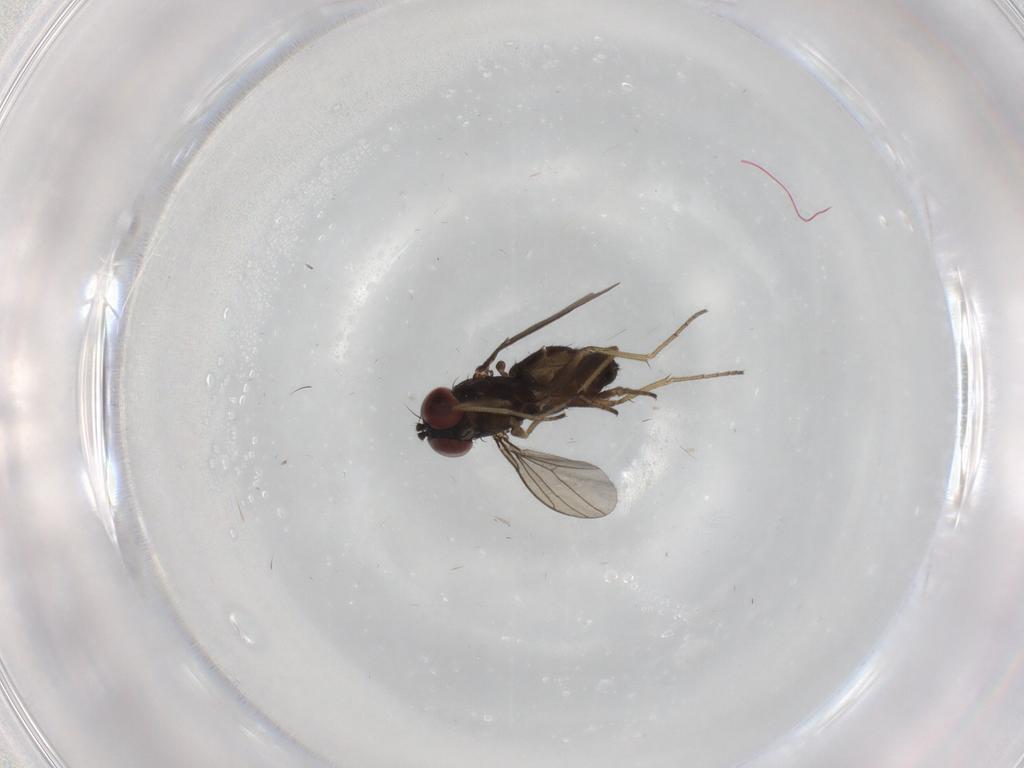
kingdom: Animalia
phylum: Arthropoda
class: Insecta
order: Diptera
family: Dolichopodidae
